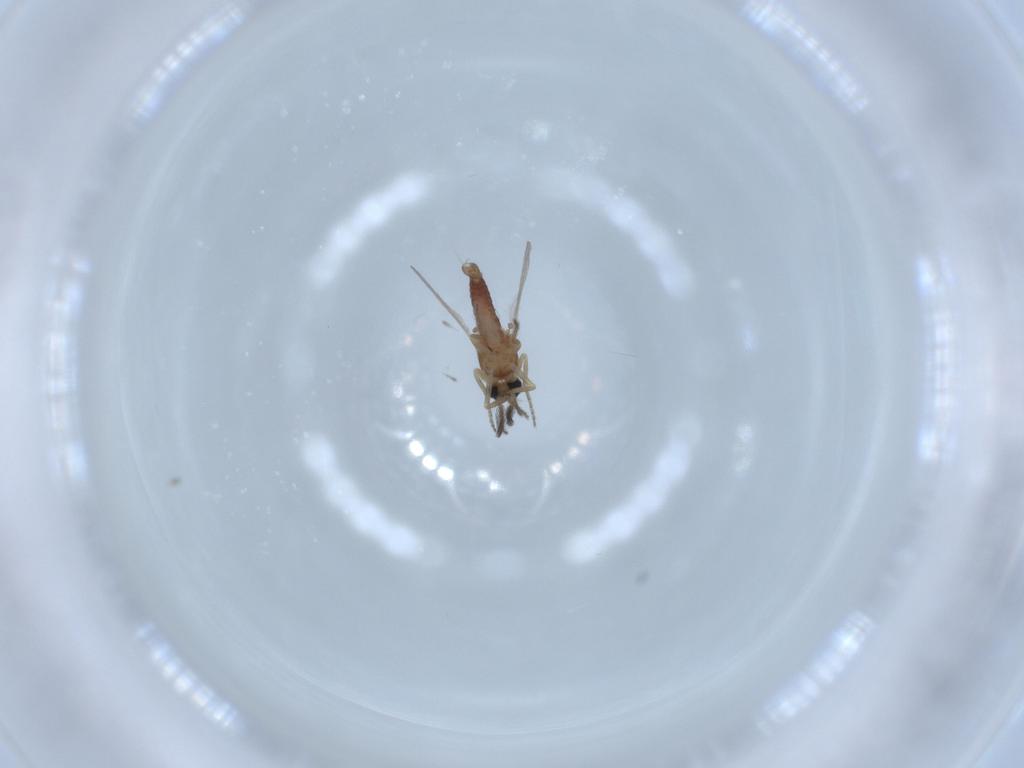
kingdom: Animalia
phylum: Arthropoda
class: Insecta
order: Diptera
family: Ceratopogonidae
